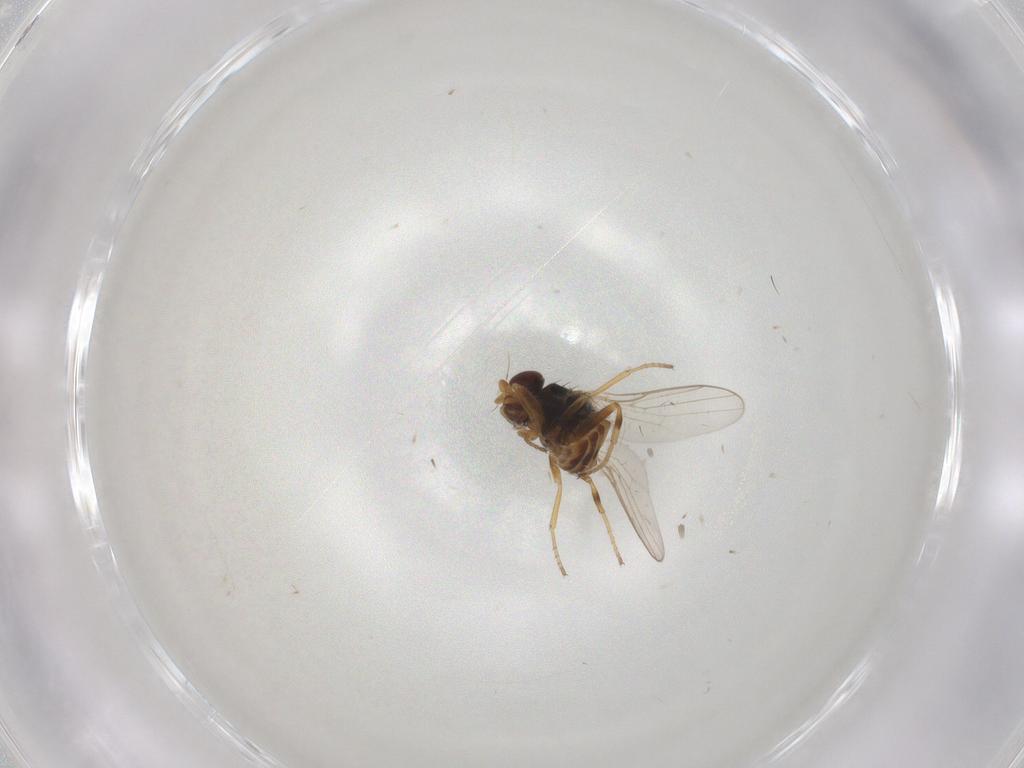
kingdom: Animalia
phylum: Arthropoda
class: Insecta
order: Diptera
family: Chloropidae
